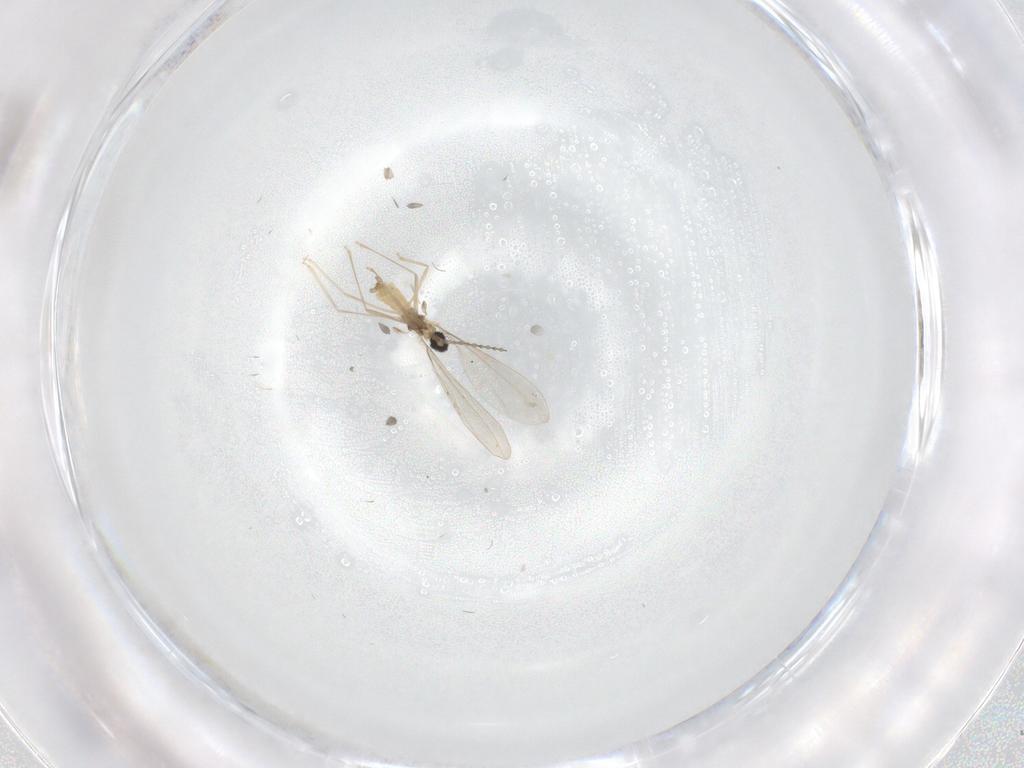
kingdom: Animalia
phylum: Arthropoda
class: Insecta
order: Diptera
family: Cecidomyiidae
